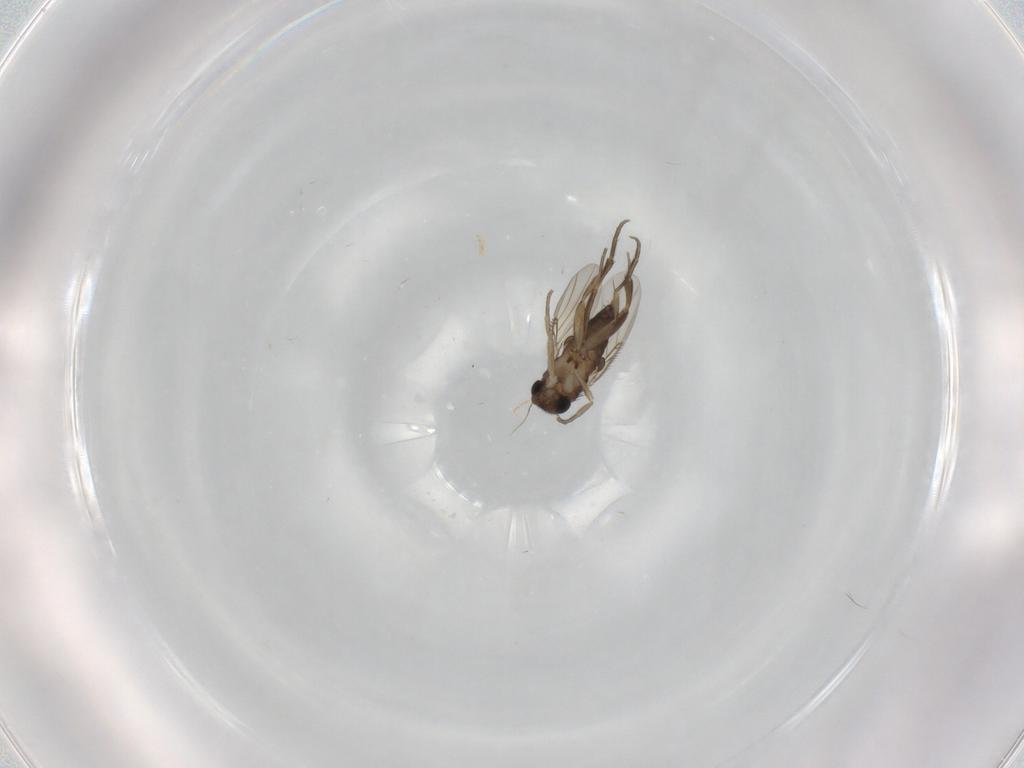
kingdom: Animalia
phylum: Arthropoda
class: Insecta
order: Diptera
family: Phoridae
